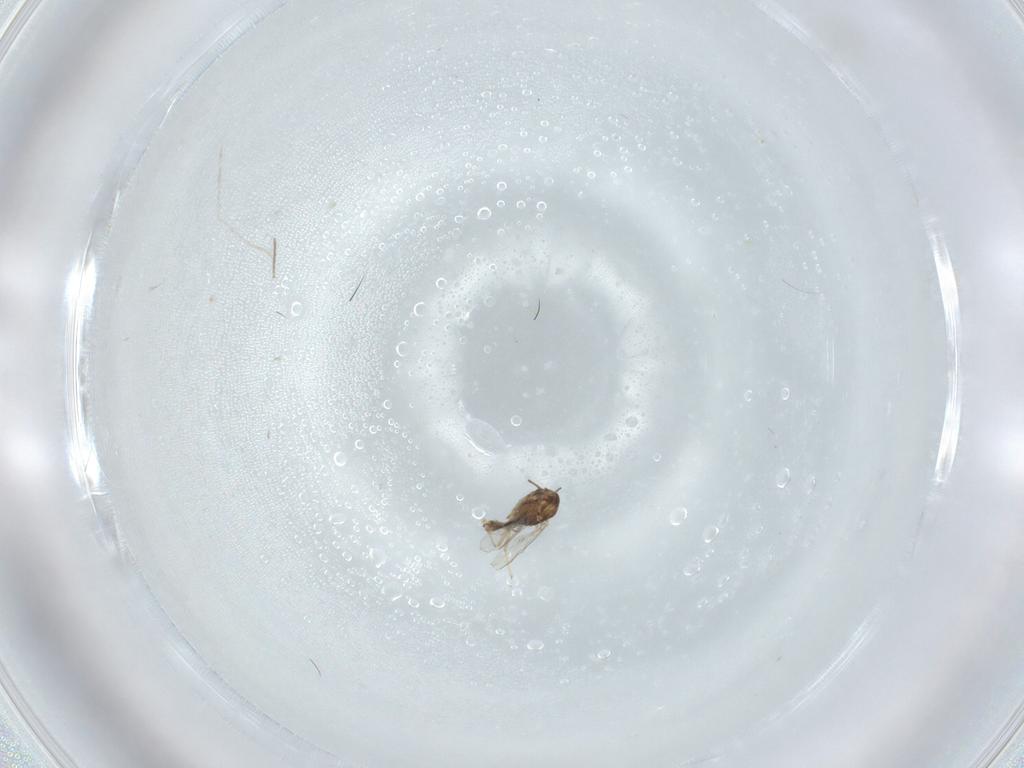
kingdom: Animalia
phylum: Arthropoda
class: Insecta
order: Diptera
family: Chironomidae
